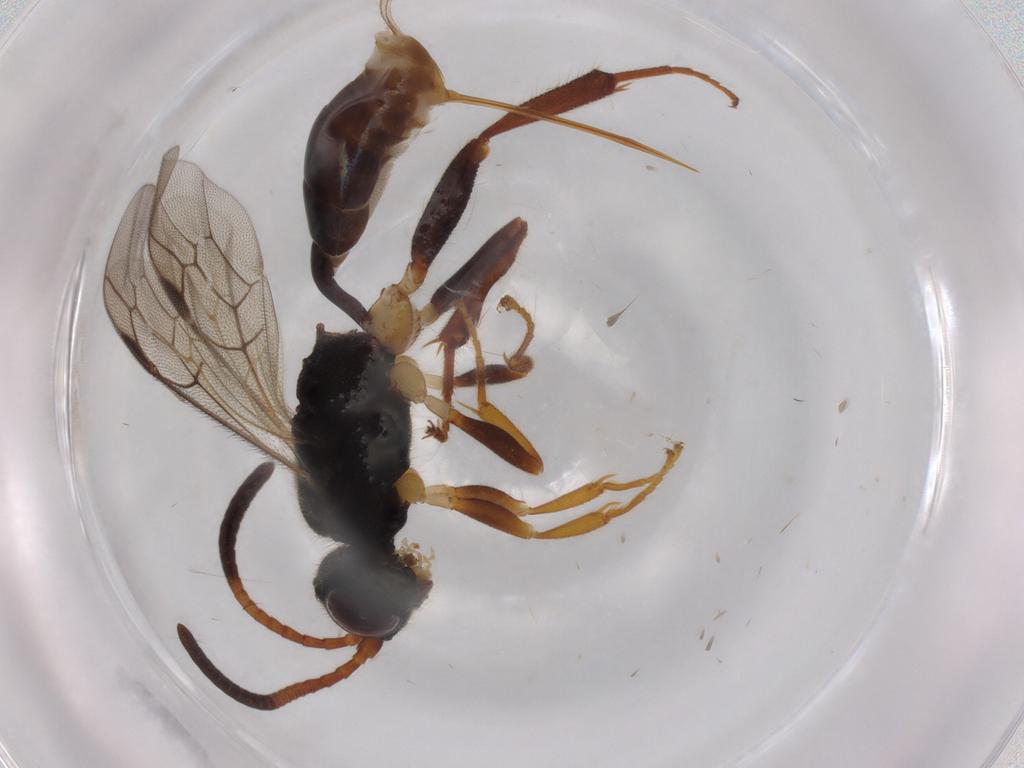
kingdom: Animalia
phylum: Arthropoda
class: Insecta
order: Hymenoptera
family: Ichneumonidae
